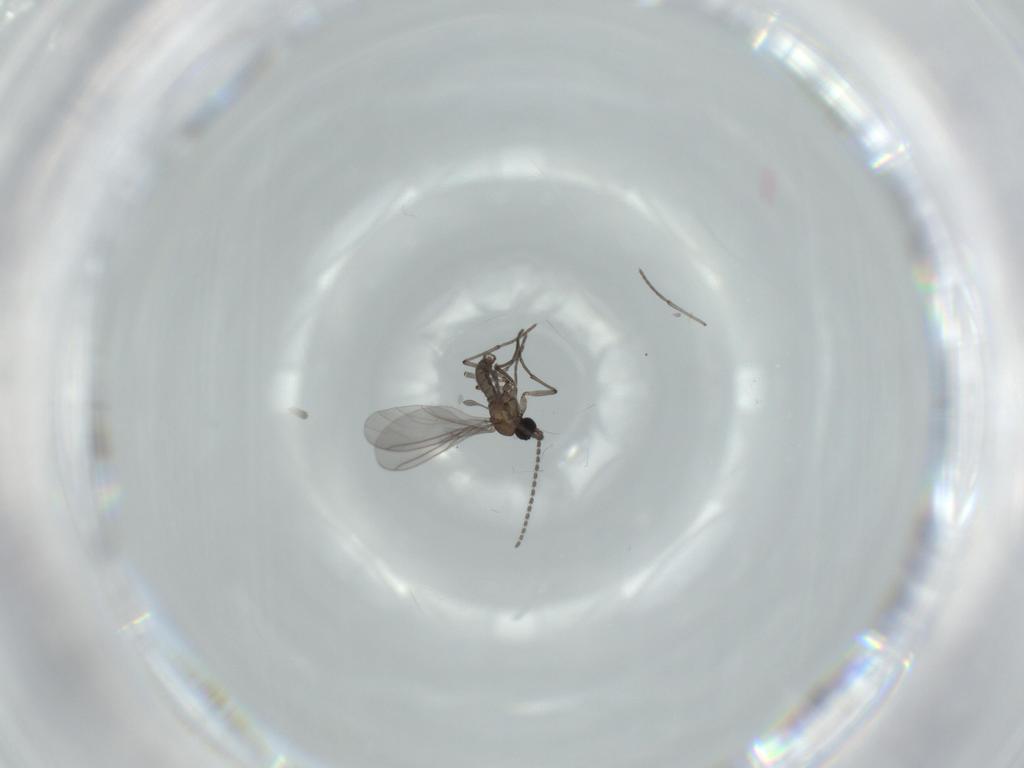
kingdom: Animalia
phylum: Arthropoda
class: Insecta
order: Diptera
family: Sciaridae
